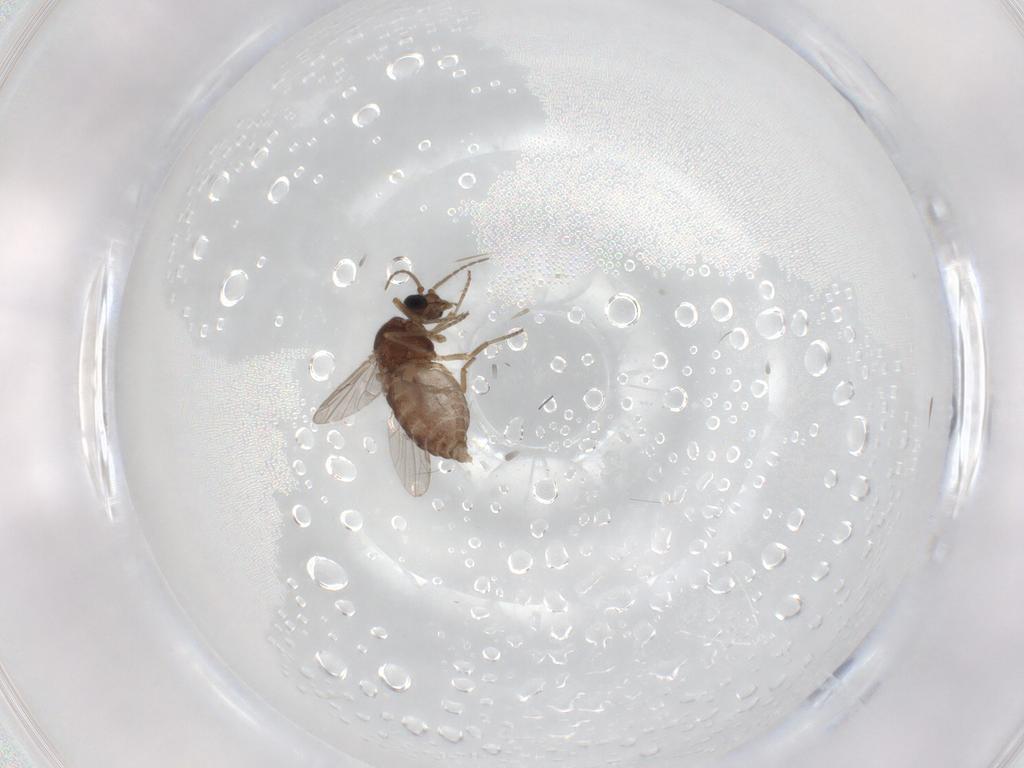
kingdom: Animalia
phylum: Arthropoda
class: Insecta
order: Diptera
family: Ceratopogonidae
